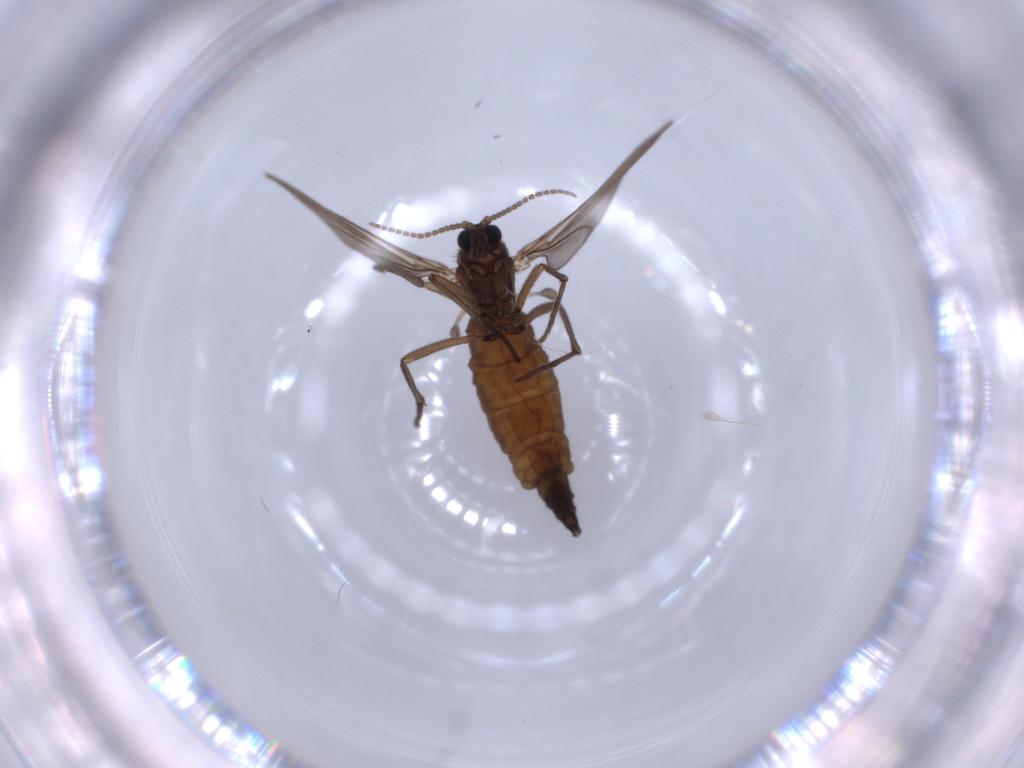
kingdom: Animalia
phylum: Arthropoda
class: Insecta
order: Diptera
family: Sciaridae
